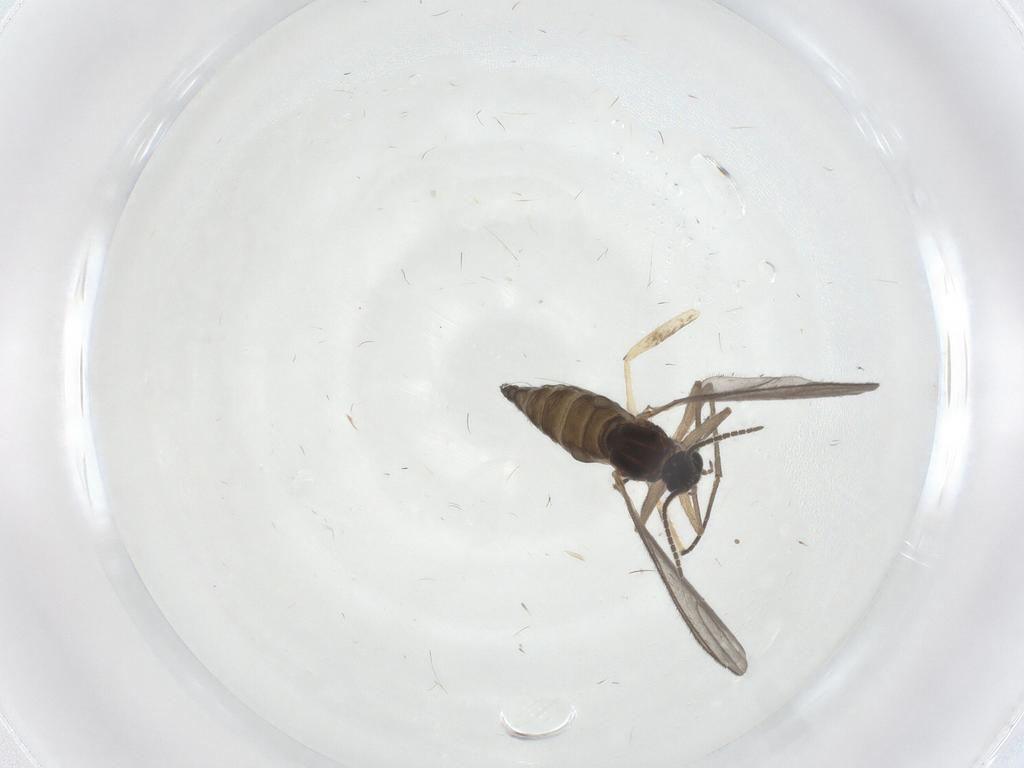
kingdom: Animalia
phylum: Arthropoda
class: Insecta
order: Diptera
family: Sciaridae
